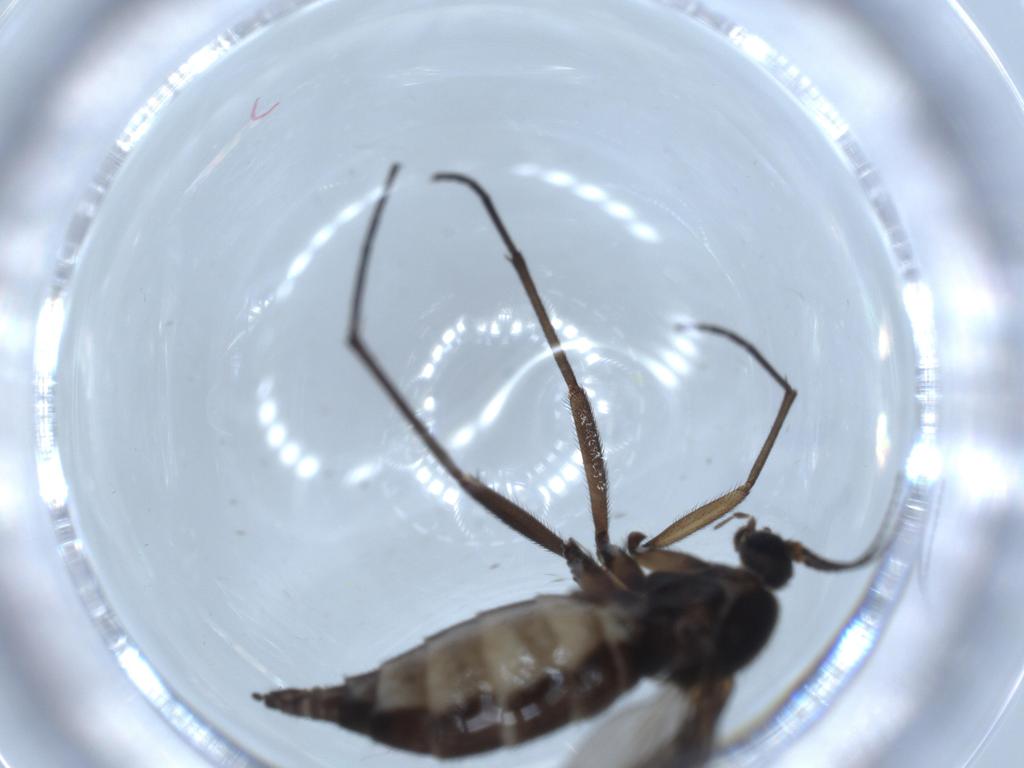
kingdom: Animalia
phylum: Arthropoda
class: Insecta
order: Diptera
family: Sciaridae
